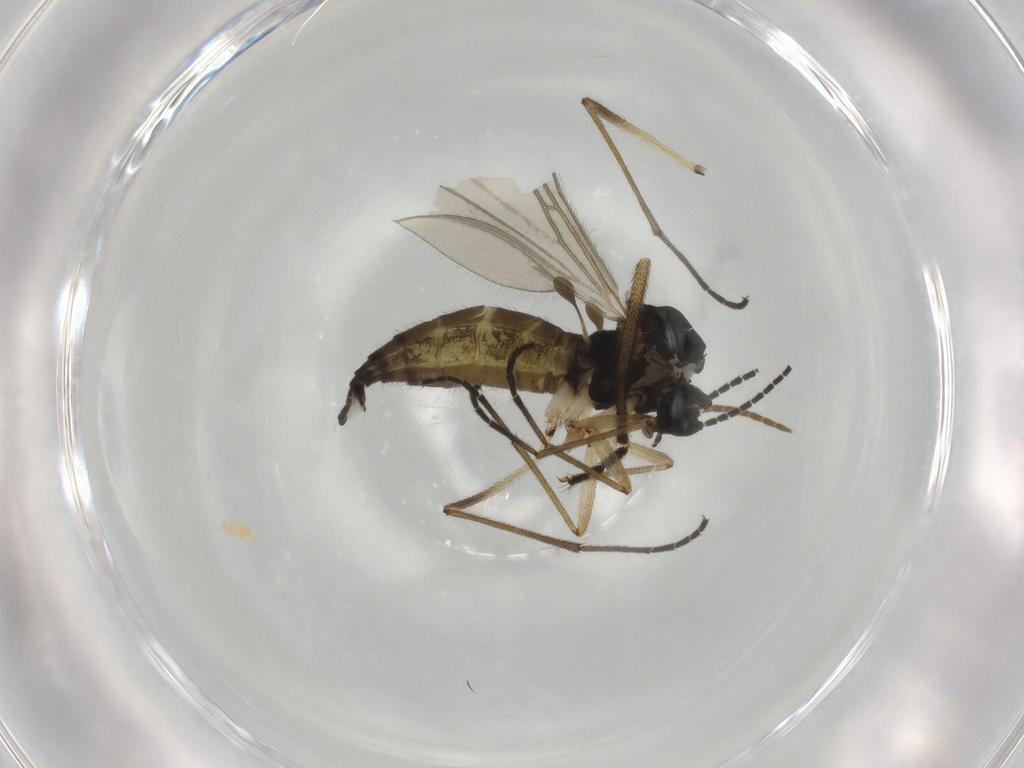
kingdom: Animalia
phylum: Arthropoda
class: Insecta
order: Diptera
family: Sciaridae
